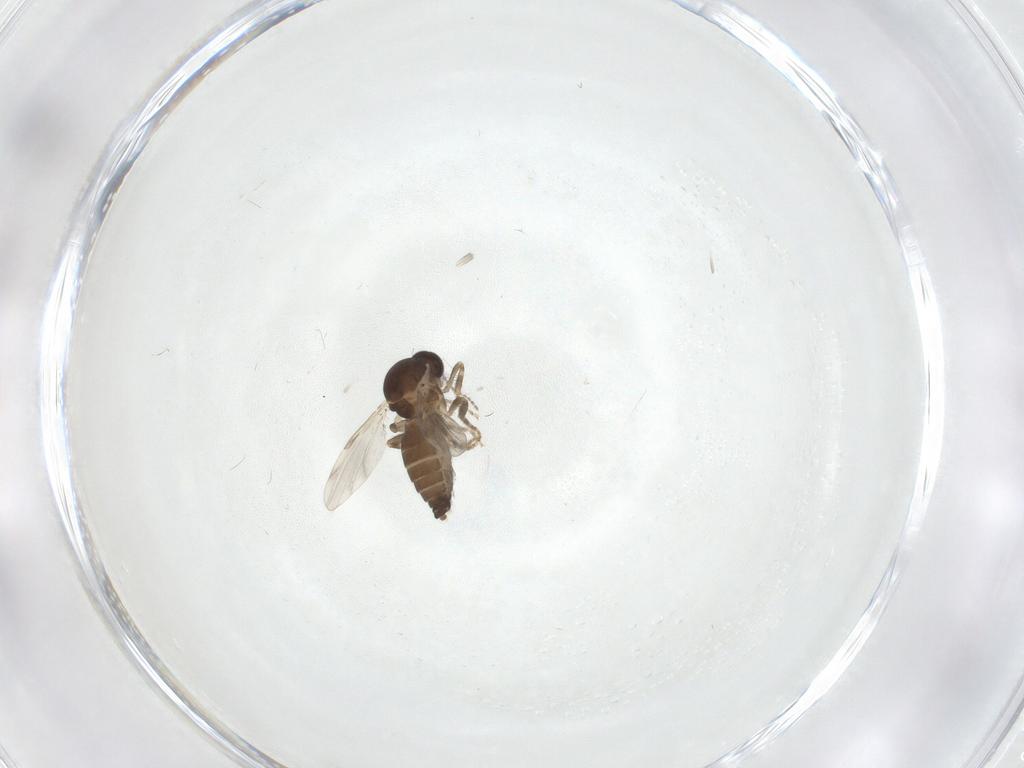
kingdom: Animalia
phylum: Arthropoda
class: Insecta
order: Diptera
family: Ceratopogonidae
